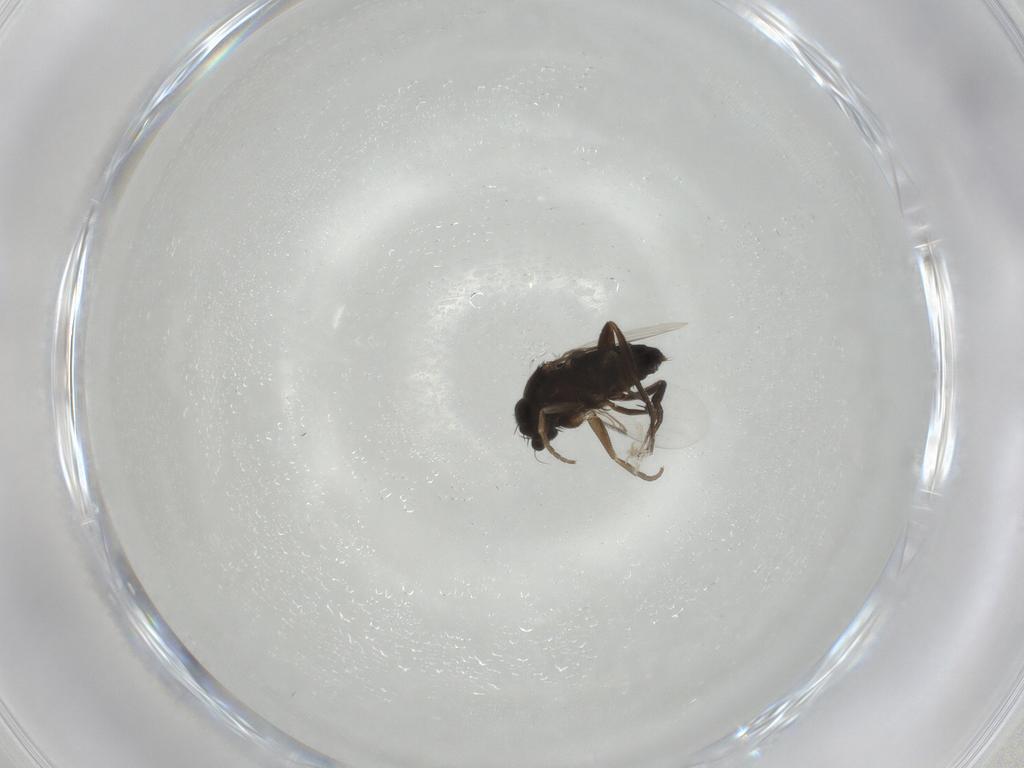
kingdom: Animalia
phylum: Arthropoda
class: Insecta
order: Diptera
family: Phoridae
